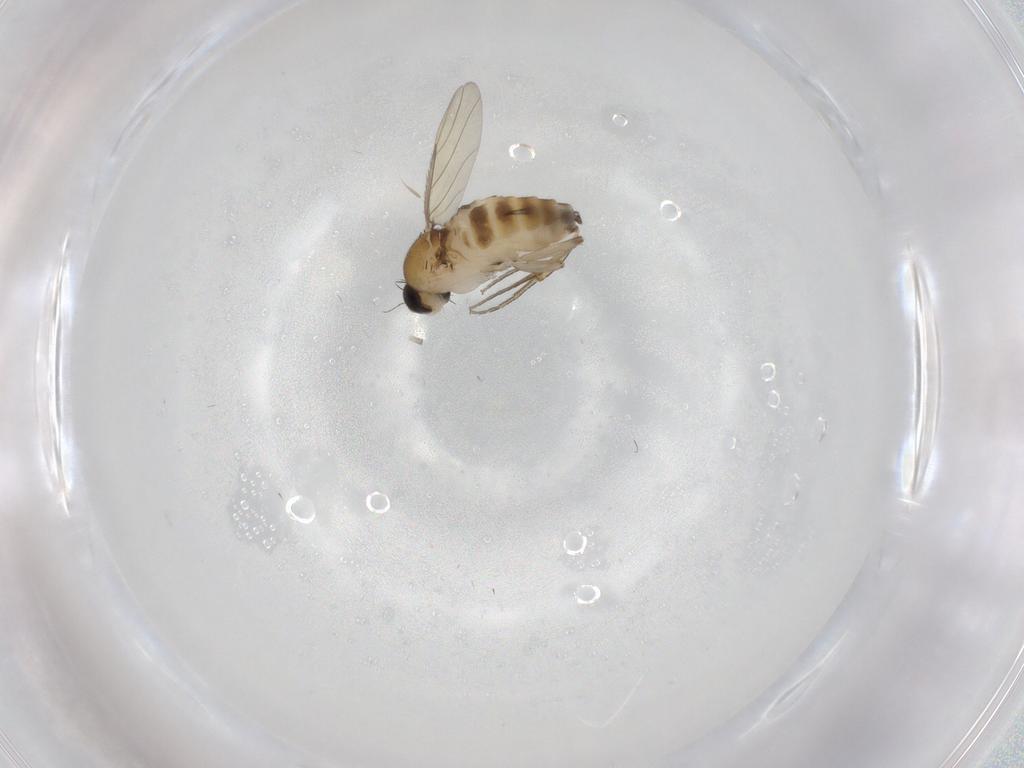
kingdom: Animalia
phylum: Arthropoda
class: Insecta
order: Diptera
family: Phoridae
